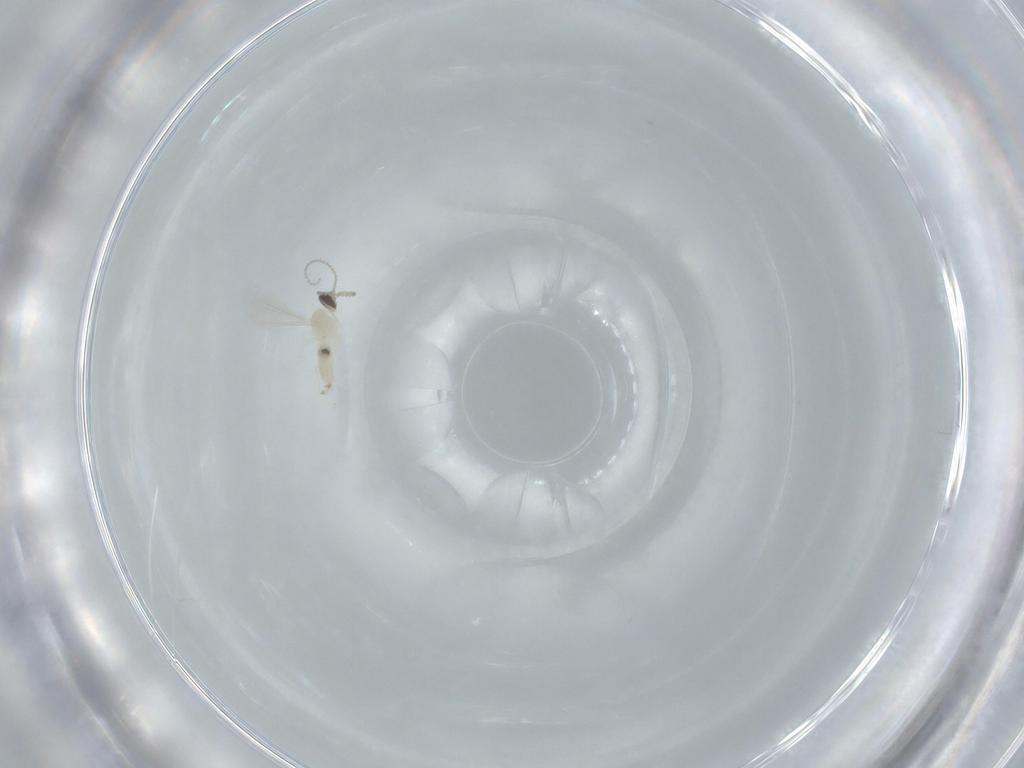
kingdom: Animalia
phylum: Arthropoda
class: Insecta
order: Diptera
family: Cecidomyiidae
